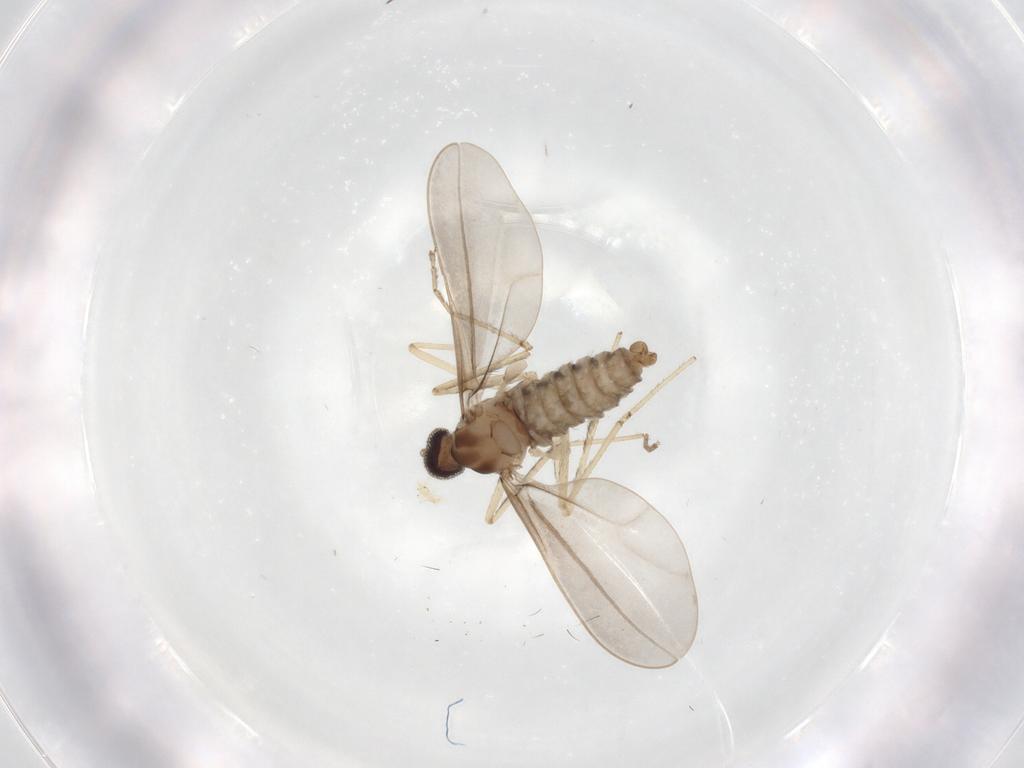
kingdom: Animalia
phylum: Arthropoda
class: Insecta
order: Diptera
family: Cecidomyiidae
